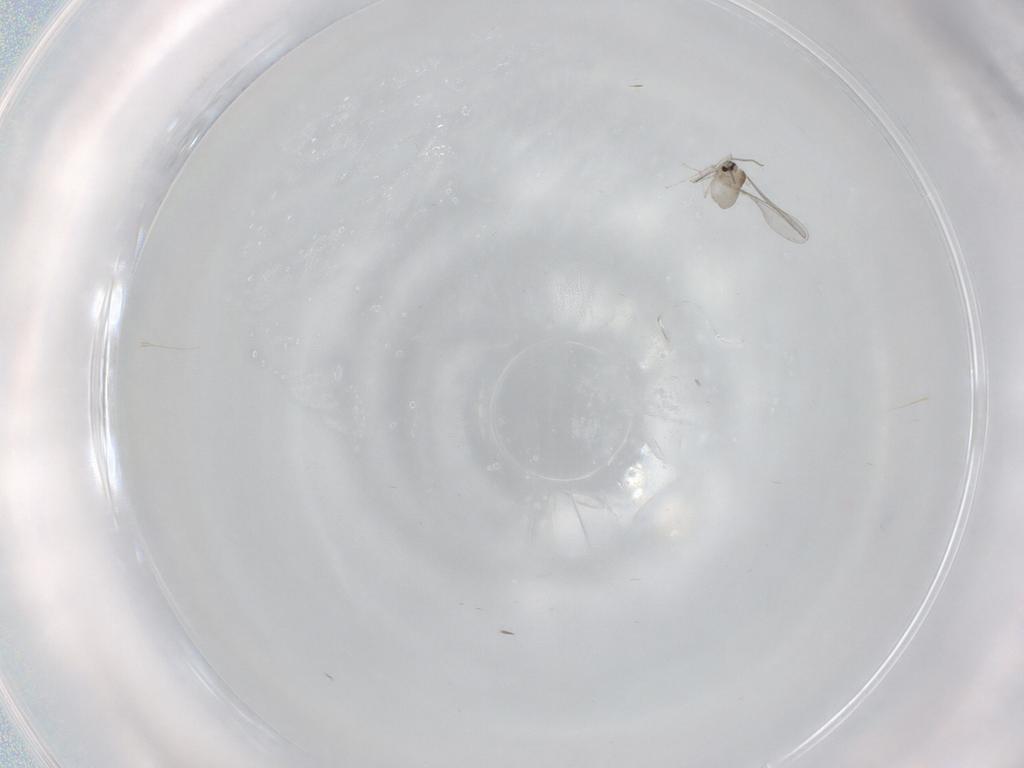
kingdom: Animalia
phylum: Arthropoda
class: Insecta
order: Diptera
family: Cecidomyiidae
